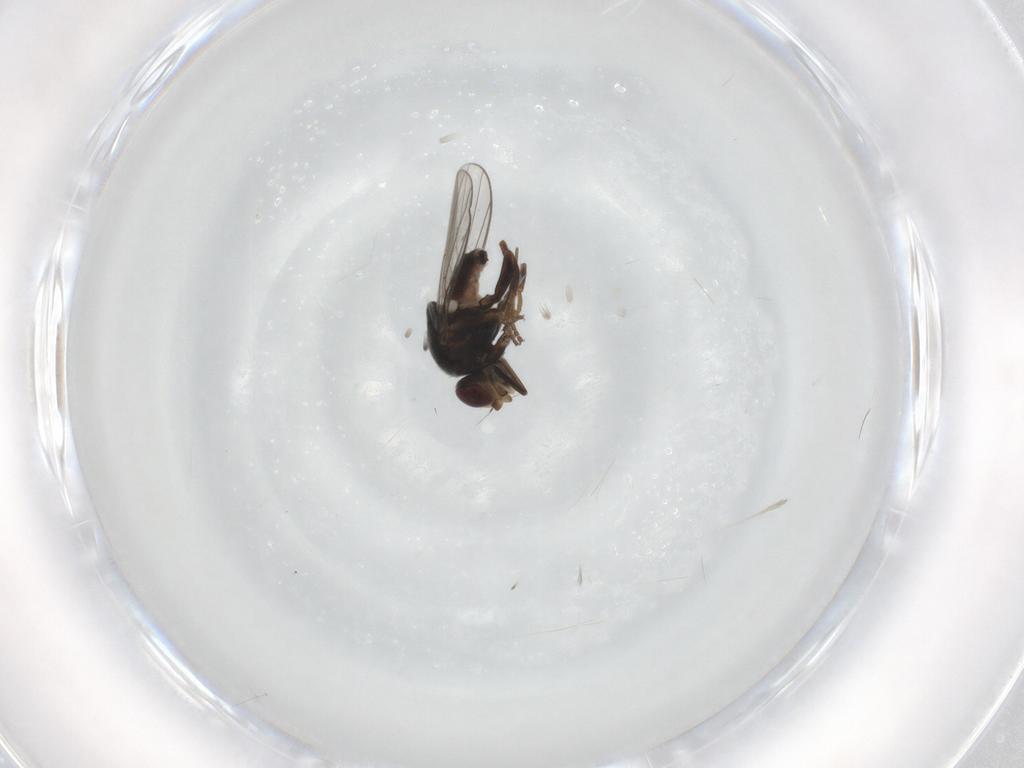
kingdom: Animalia
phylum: Arthropoda
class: Insecta
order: Diptera
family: Chloropidae
